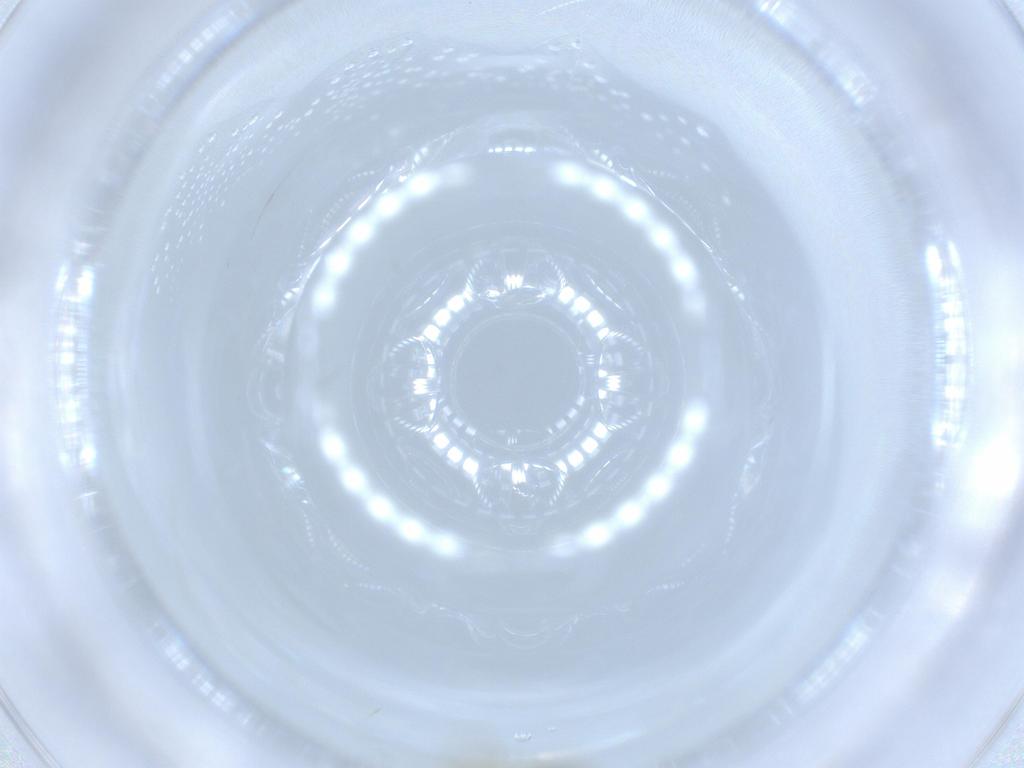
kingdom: Animalia
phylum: Arthropoda
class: Insecta
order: Diptera
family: Chironomidae
